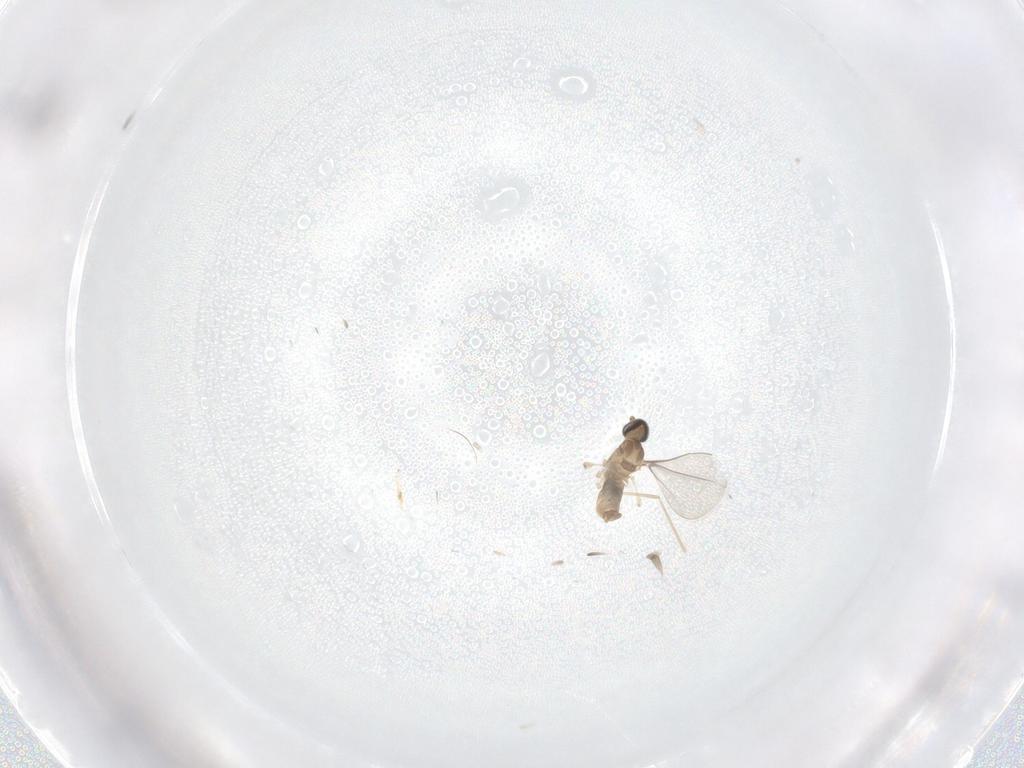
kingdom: Animalia
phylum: Arthropoda
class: Insecta
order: Diptera
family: Cecidomyiidae
